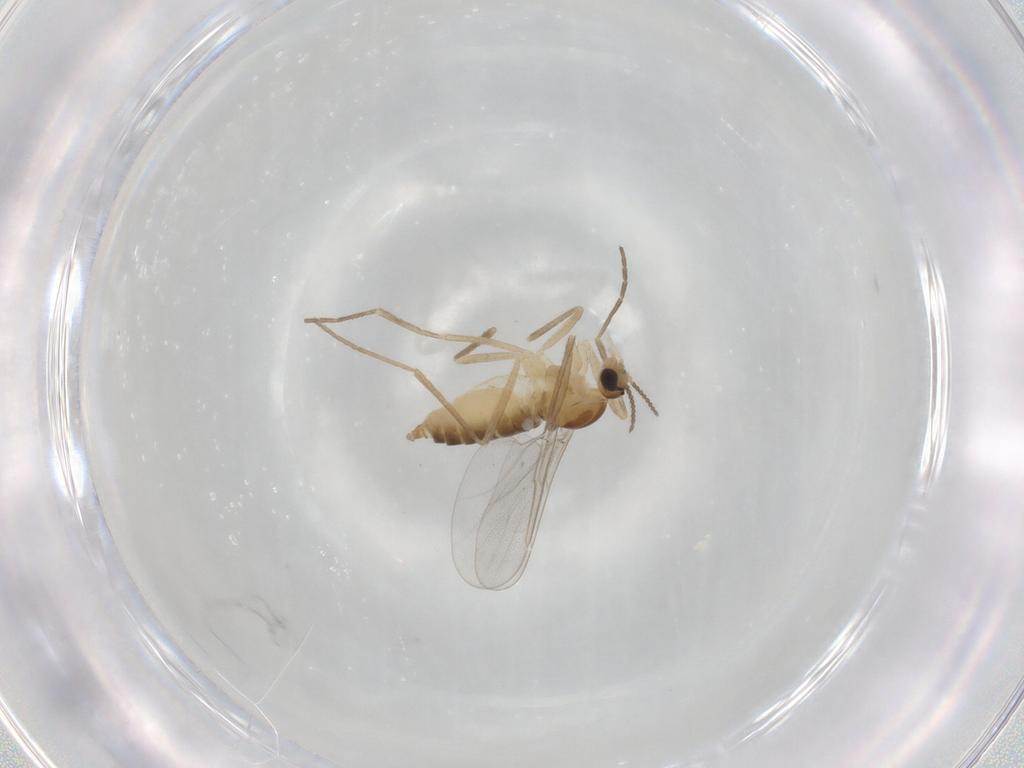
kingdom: Animalia
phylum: Arthropoda
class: Insecta
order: Diptera
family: Cecidomyiidae
